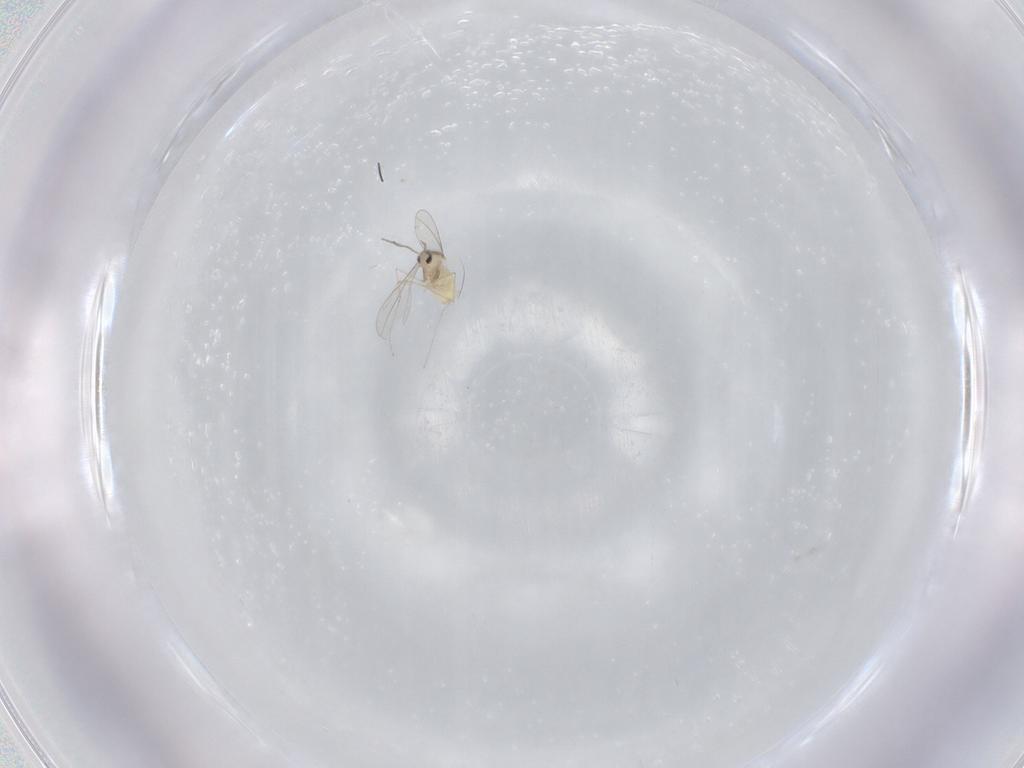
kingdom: Animalia
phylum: Arthropoda
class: Insecta
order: Diptera
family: Cecidomyiidae
